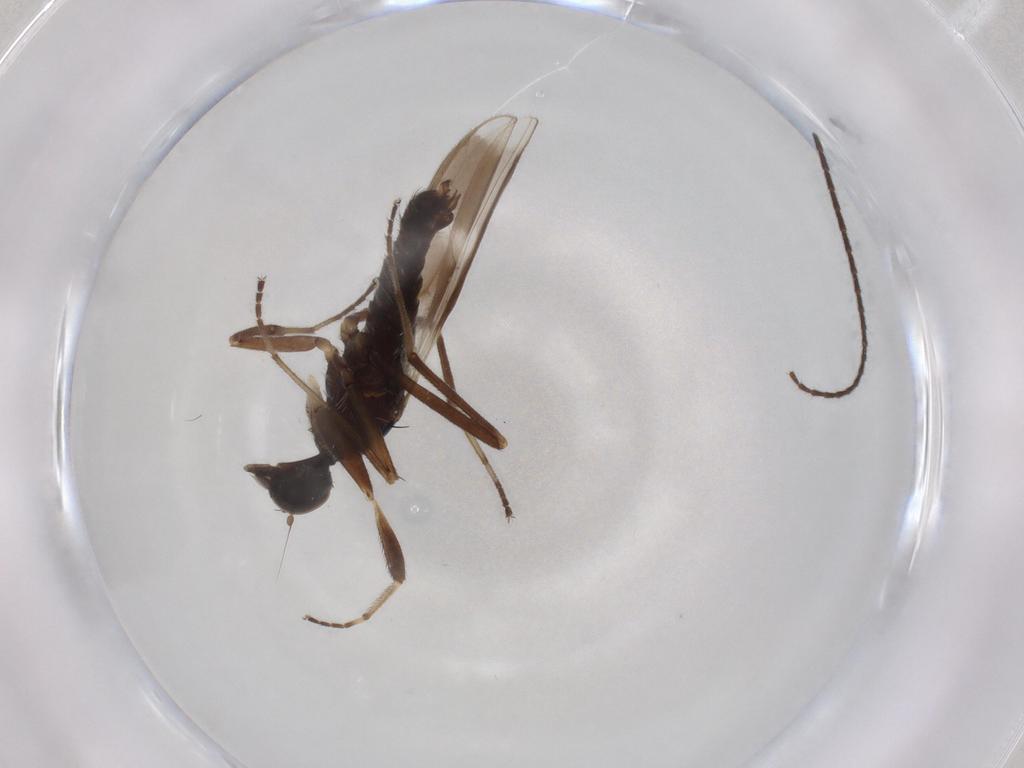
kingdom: Animalia
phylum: Arthropoda
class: Insecta
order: Diptera
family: Hybotidae
